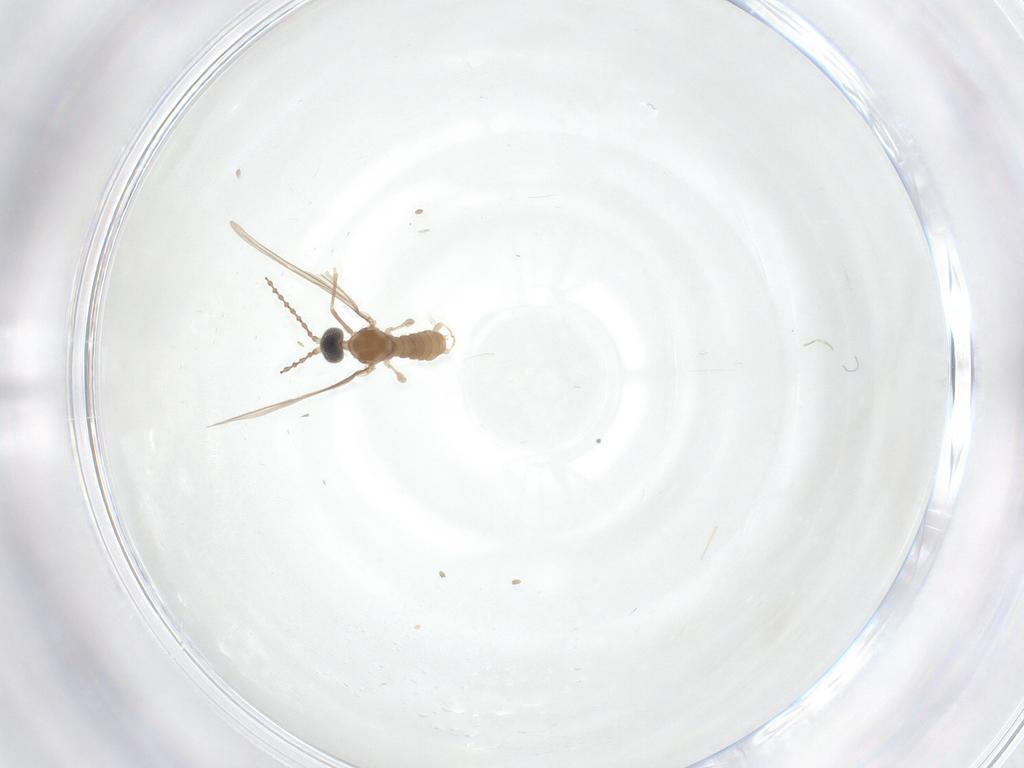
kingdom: Animalia
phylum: Arthropoda
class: Insecta
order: Diptera
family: Cecidomyiidae
